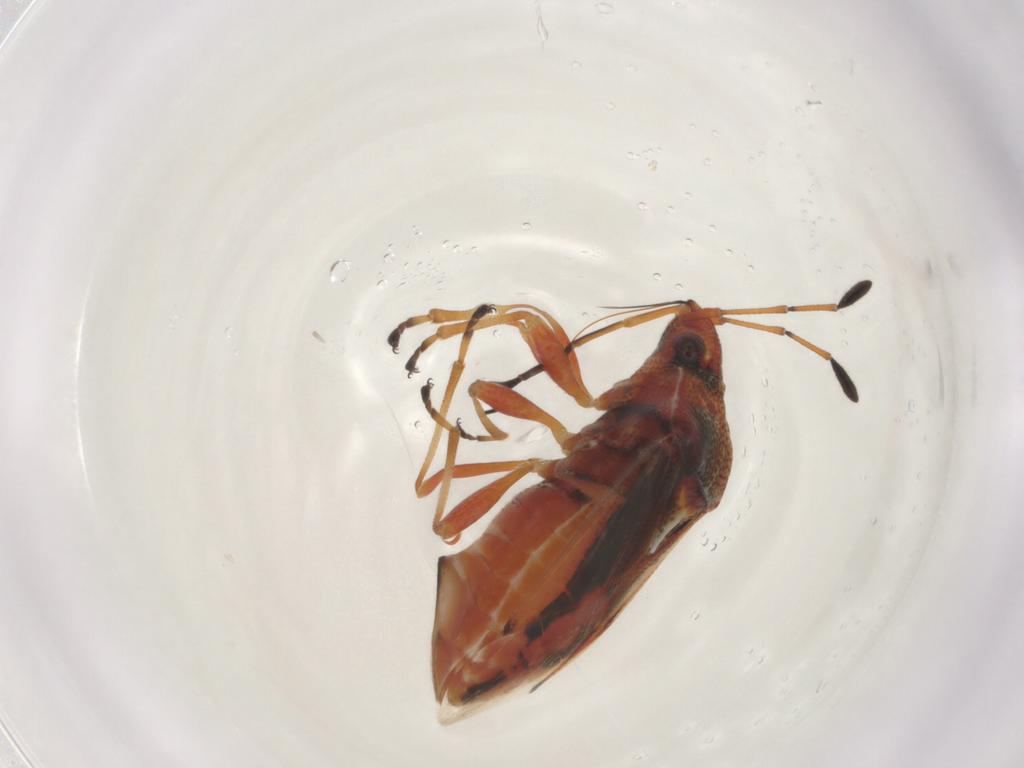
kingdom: Animalia
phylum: Arthropoda
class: Insecta
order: Hemiptera
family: Lygaeidae
